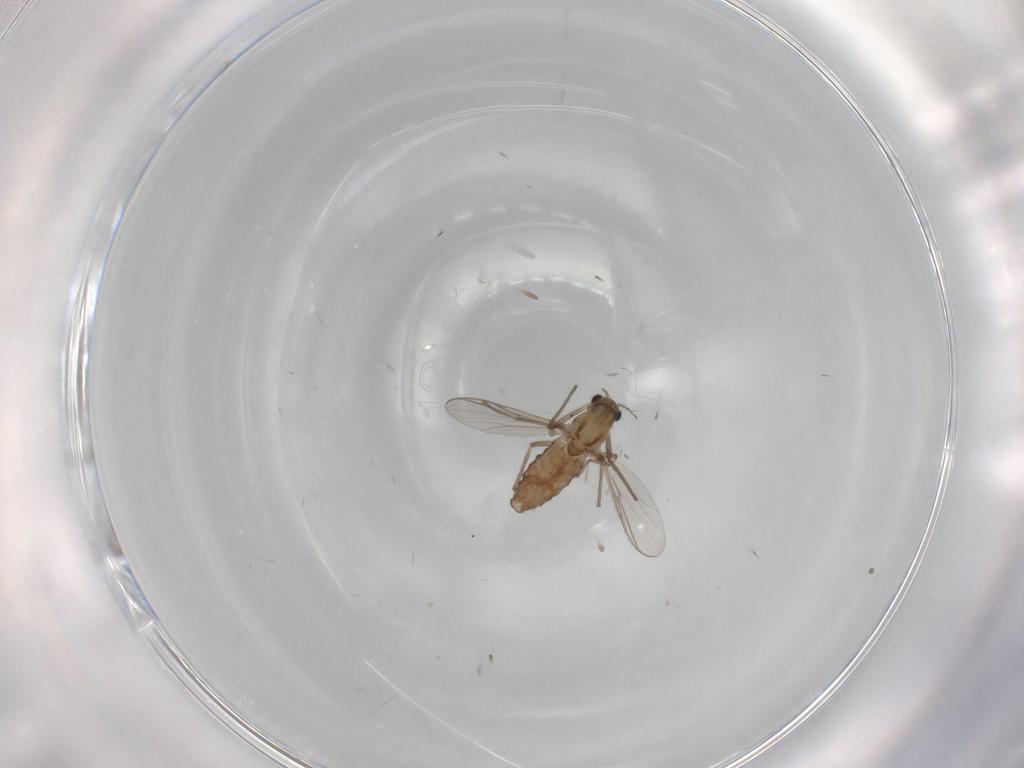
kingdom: Animalia
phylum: Arthropoda
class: Insecta
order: Diptera
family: Chironomidae
